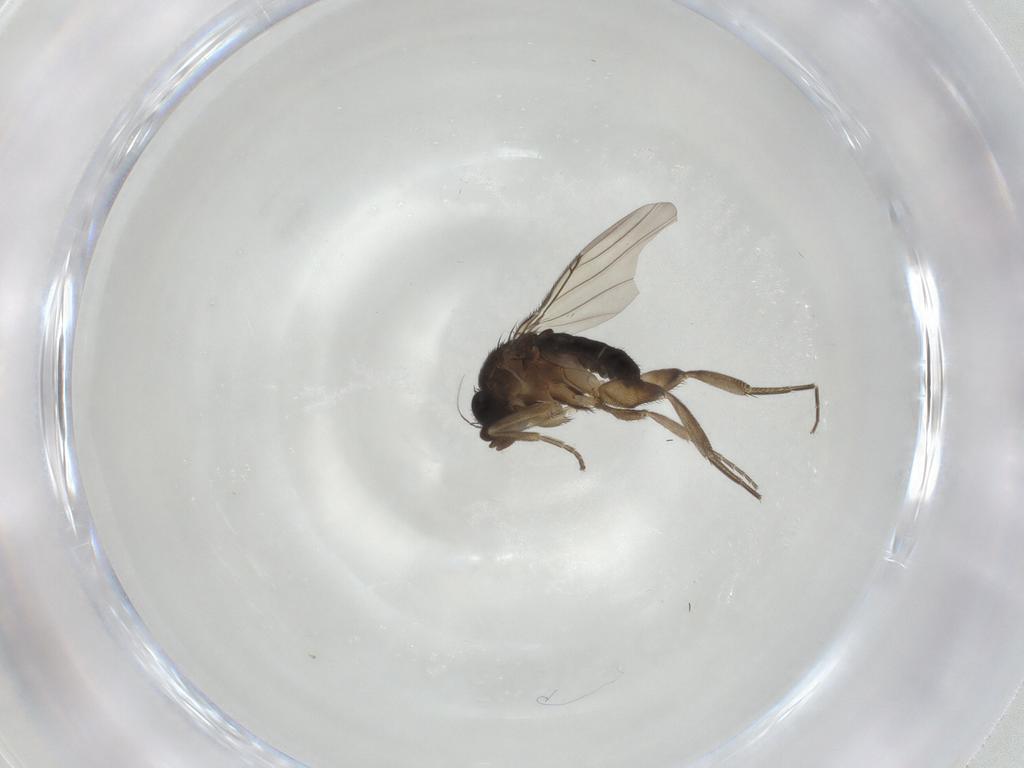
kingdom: Animalia
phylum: Arthropoda
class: Insecta
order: Diptera
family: Phoridae
